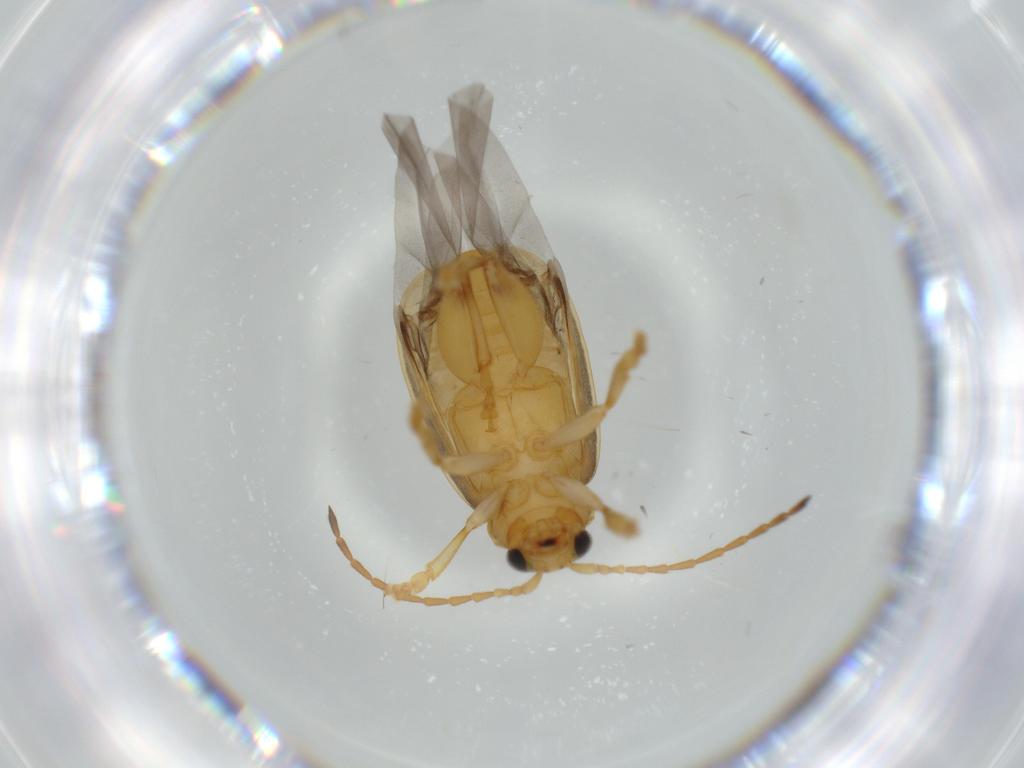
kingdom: Animalia
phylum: Arthropoda
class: Insecta
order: Coleoptera
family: Chrysomelidae
